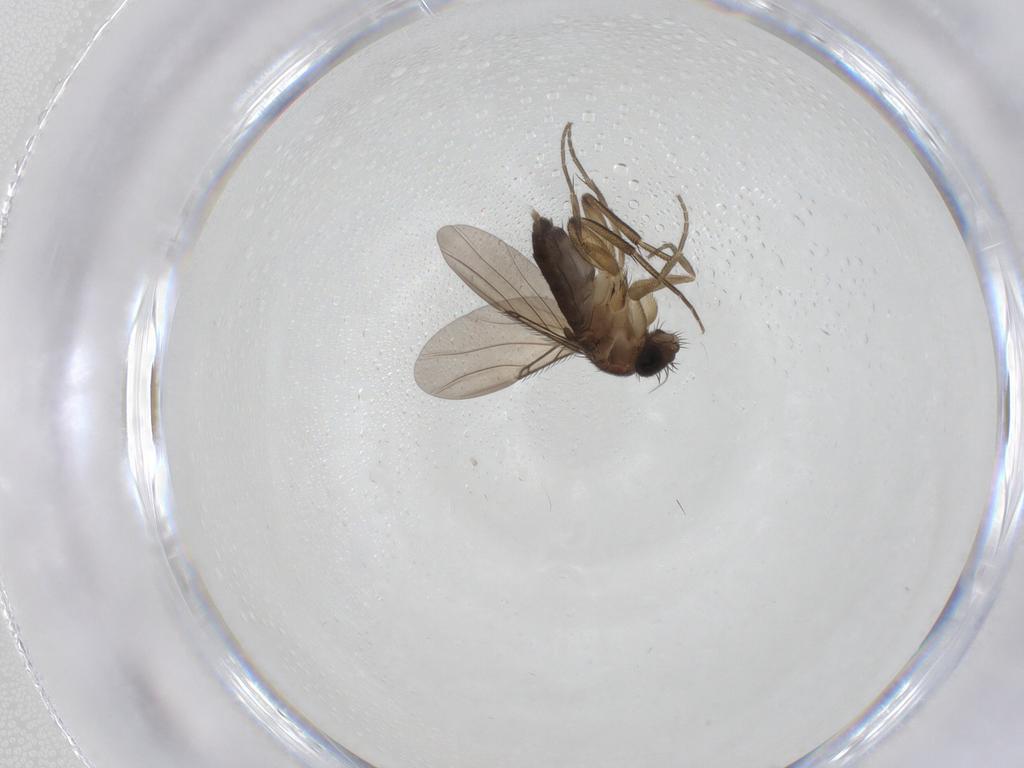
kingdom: Animalia
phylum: Arthropoda
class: Insecta
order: Diptera
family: Phoridae
